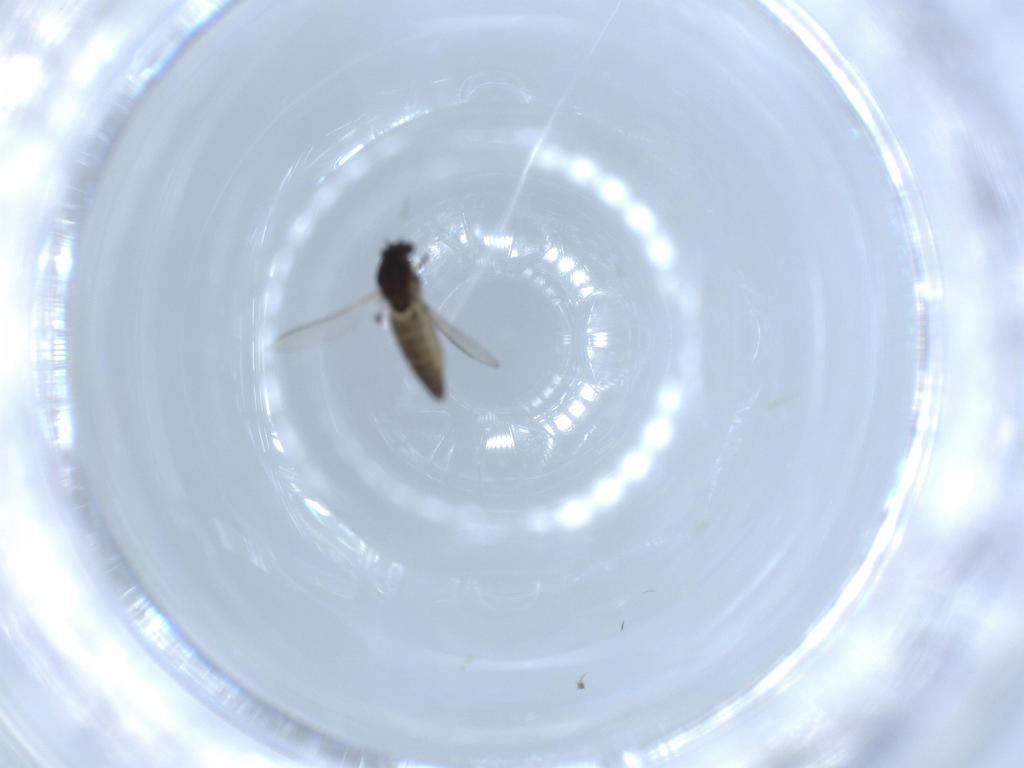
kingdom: Animalia
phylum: Arthropoda
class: Insecta
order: Diptera
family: Chironomidae
